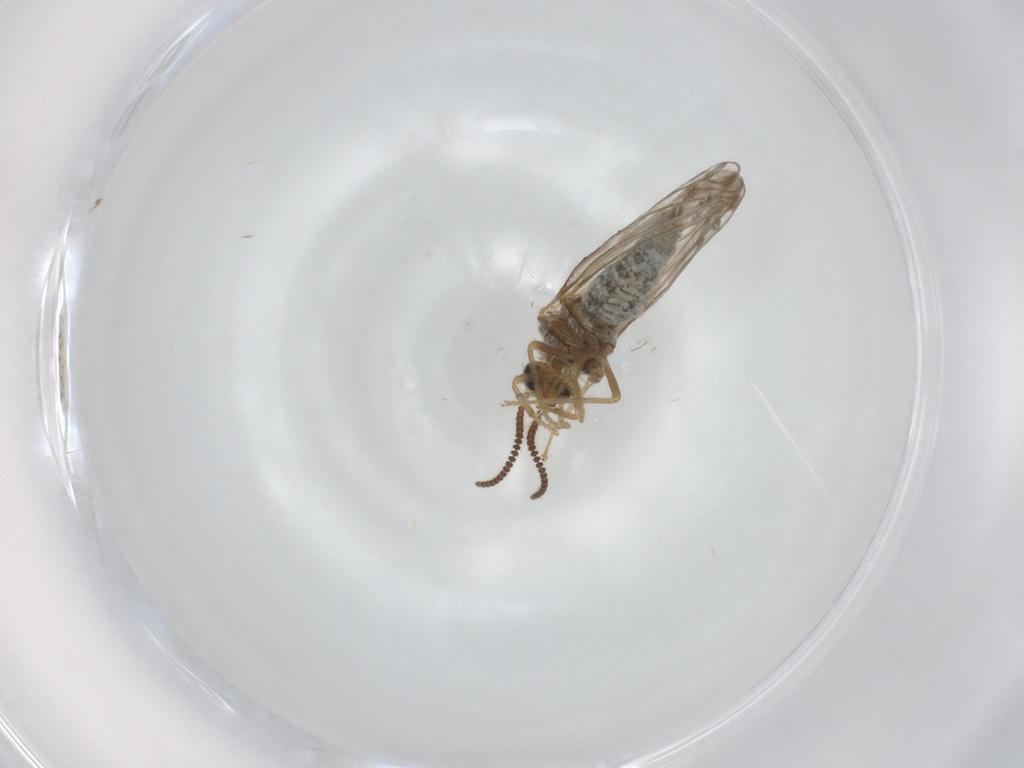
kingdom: Animalia
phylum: Arthropoda
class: Insecta
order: Neuroptera
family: Coniopterygidae
